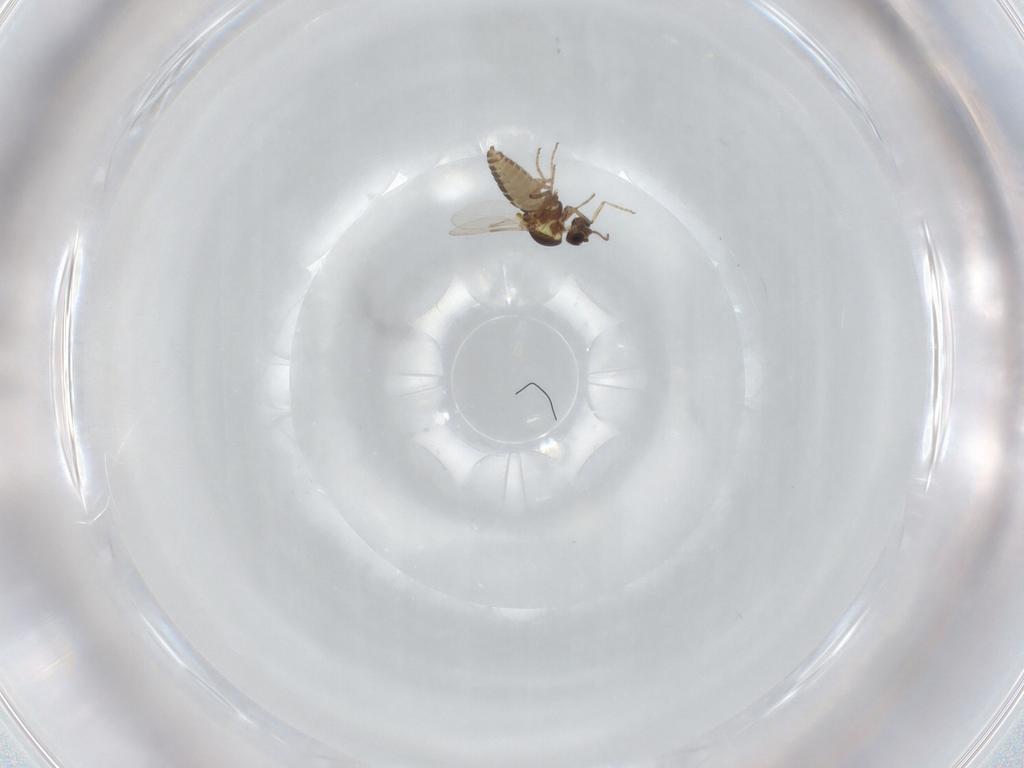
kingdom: Animalia
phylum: Arthropoda
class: Insecta
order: Diptera
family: Ceratopogonidae
